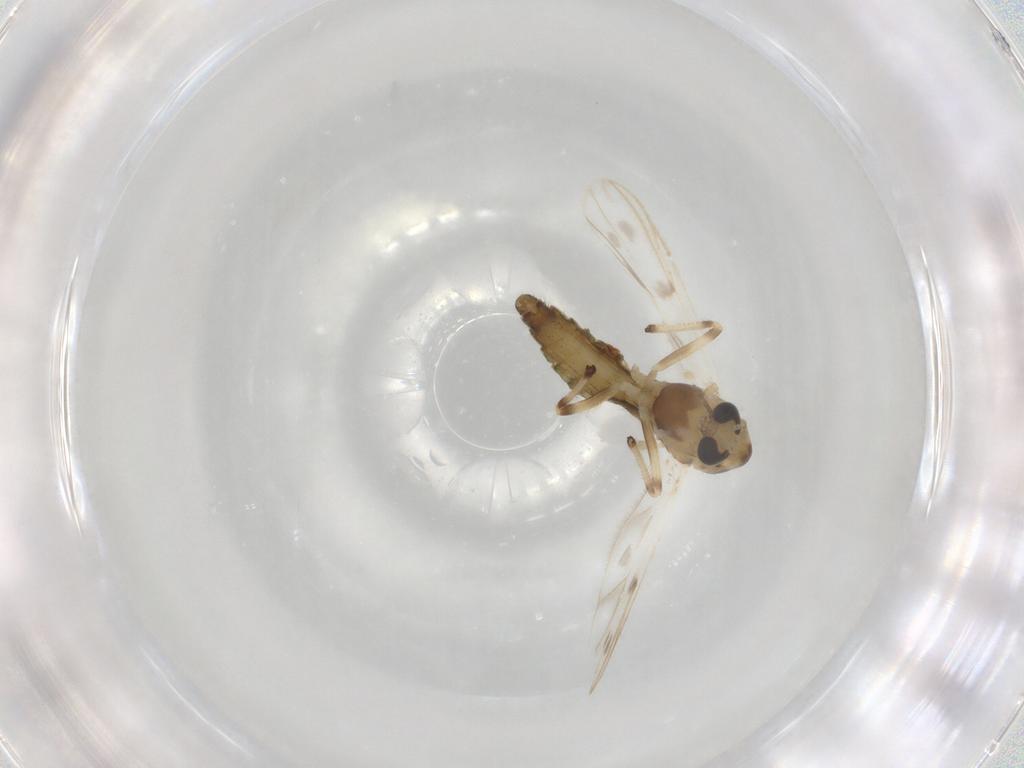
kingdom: Animalia
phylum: Arthropoda
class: Insecta
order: Diptera
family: Chironomidae
